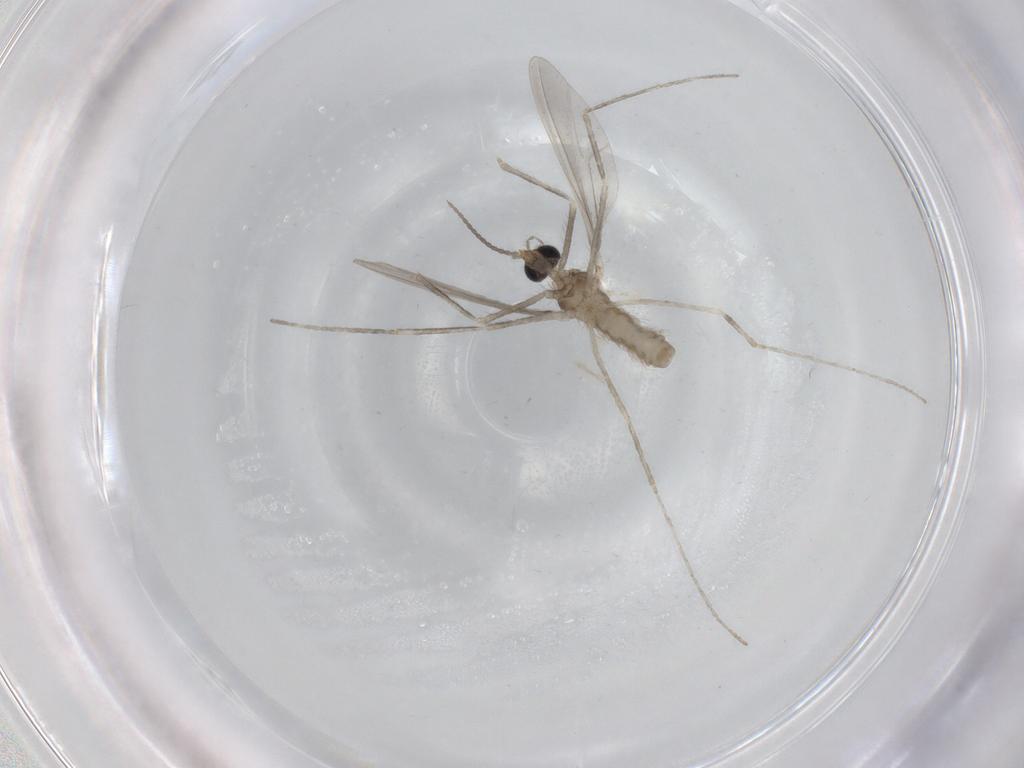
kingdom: Animalia
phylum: Arthropoda
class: Insecta
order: Diptera
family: Cecidomyiidae
